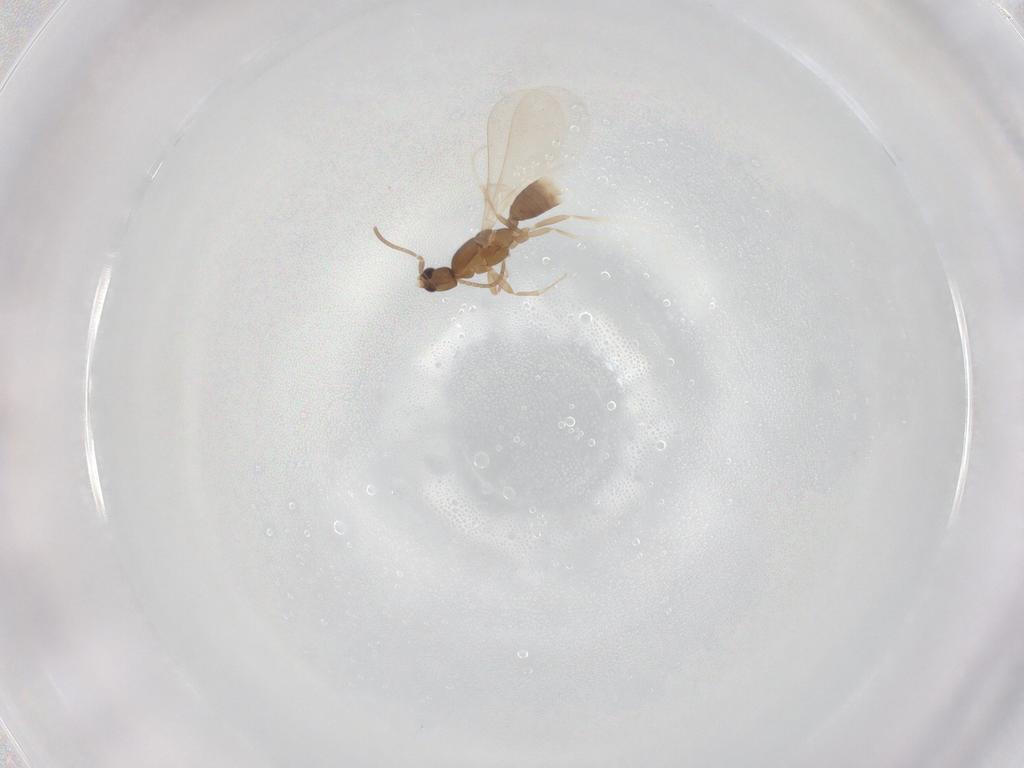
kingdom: Animalia
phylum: Arthropoda
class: Insecta
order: Hymenoptera
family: Formicidae
